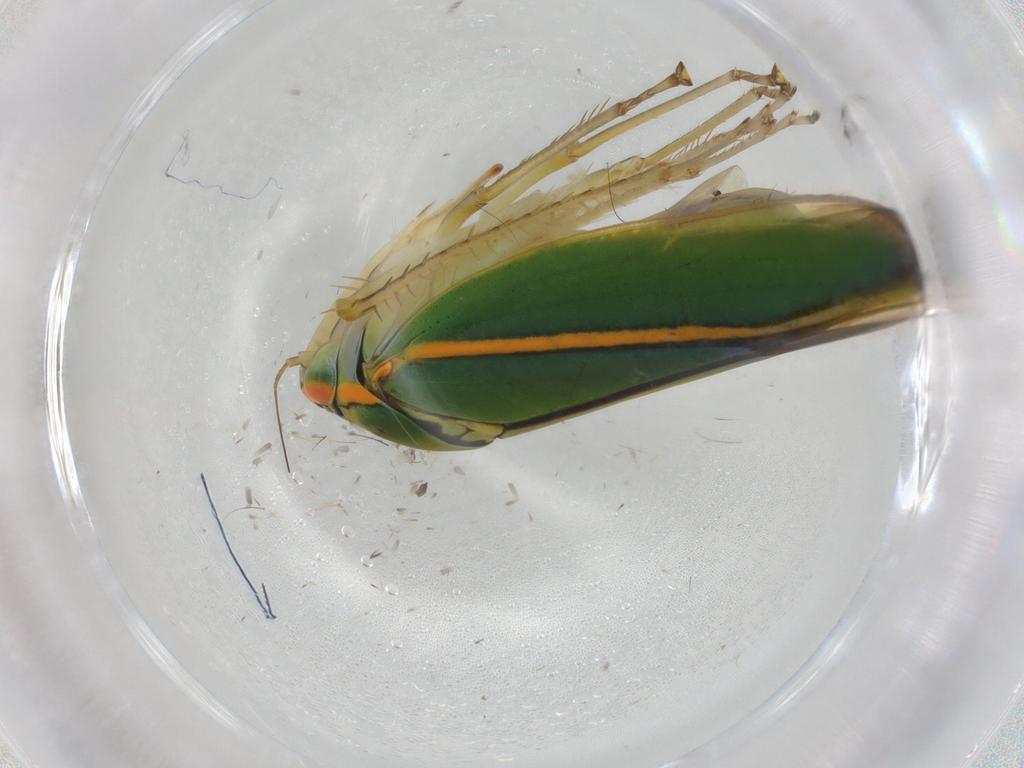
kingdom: Animalia
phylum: Arthropoda
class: Insecta
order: Hemiptera
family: Cicadellidae
